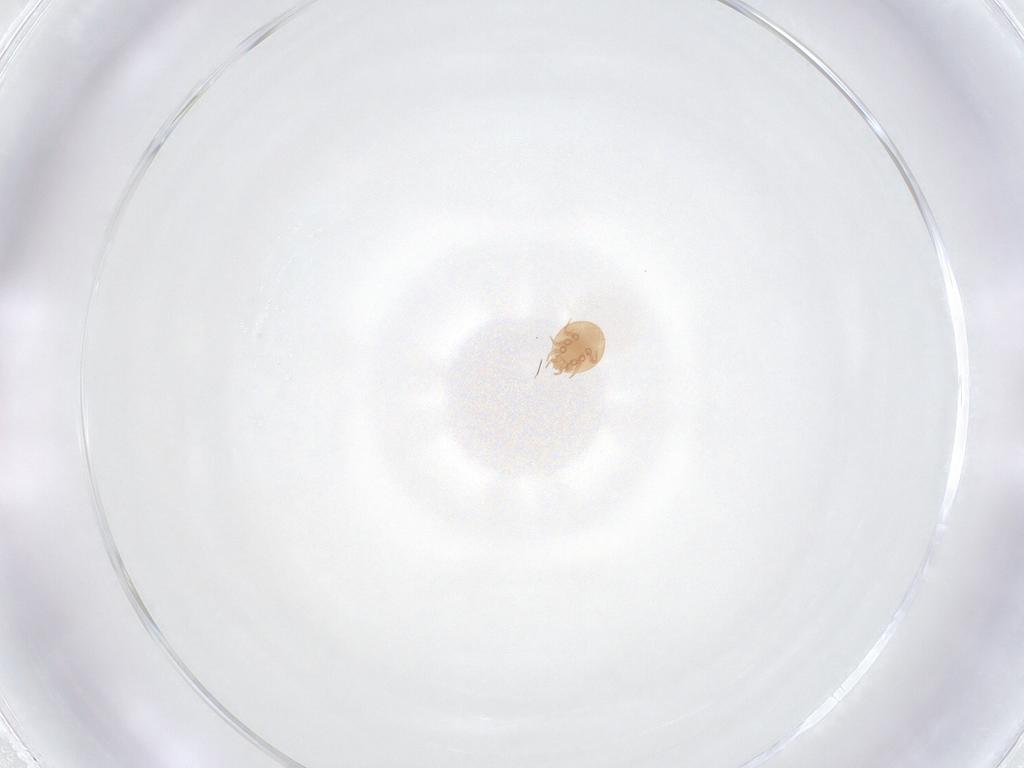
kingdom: Animalia
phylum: Arthropoda
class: Arachnida
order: Mesostigmata
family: Trematuridae
